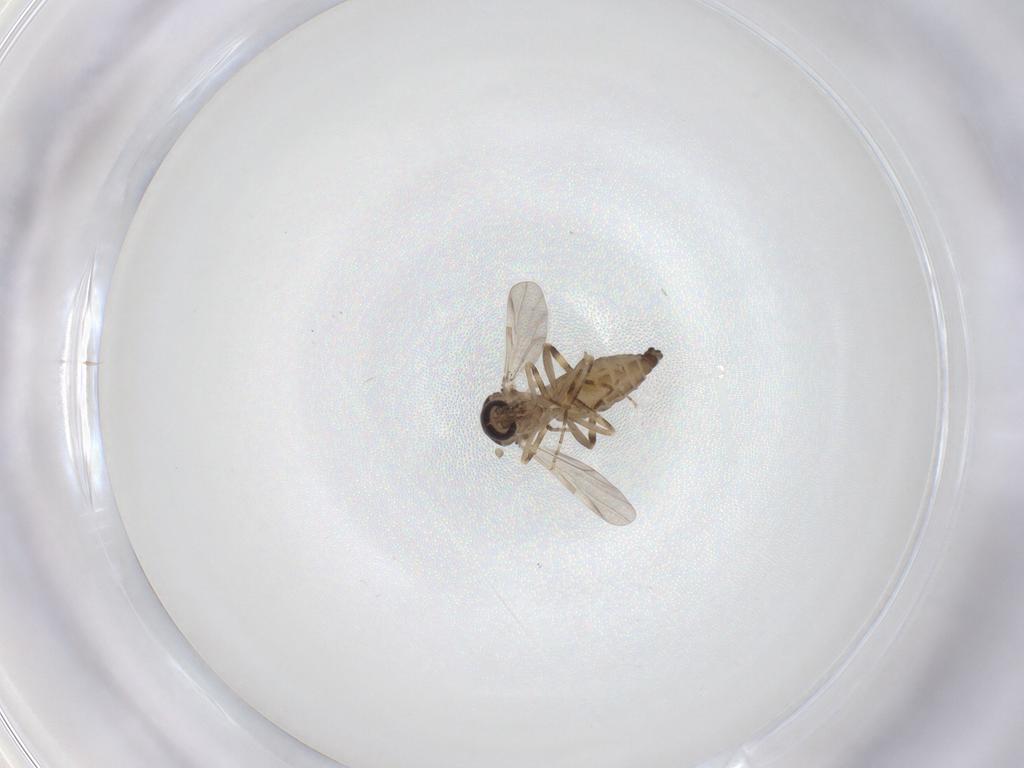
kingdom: Animalia
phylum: Arthropoda
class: Insecta
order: Diptera
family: Ceratopogonidae
